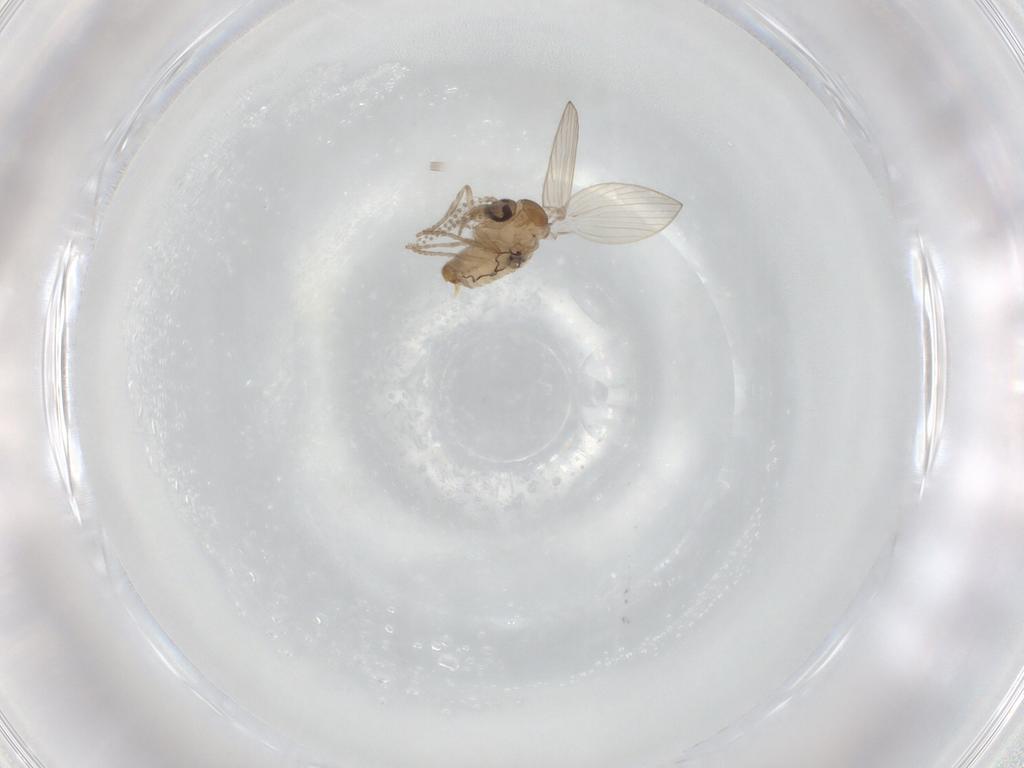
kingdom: Animalia
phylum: Arthropoda
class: Insecta
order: Diptera
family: Psychodidae
